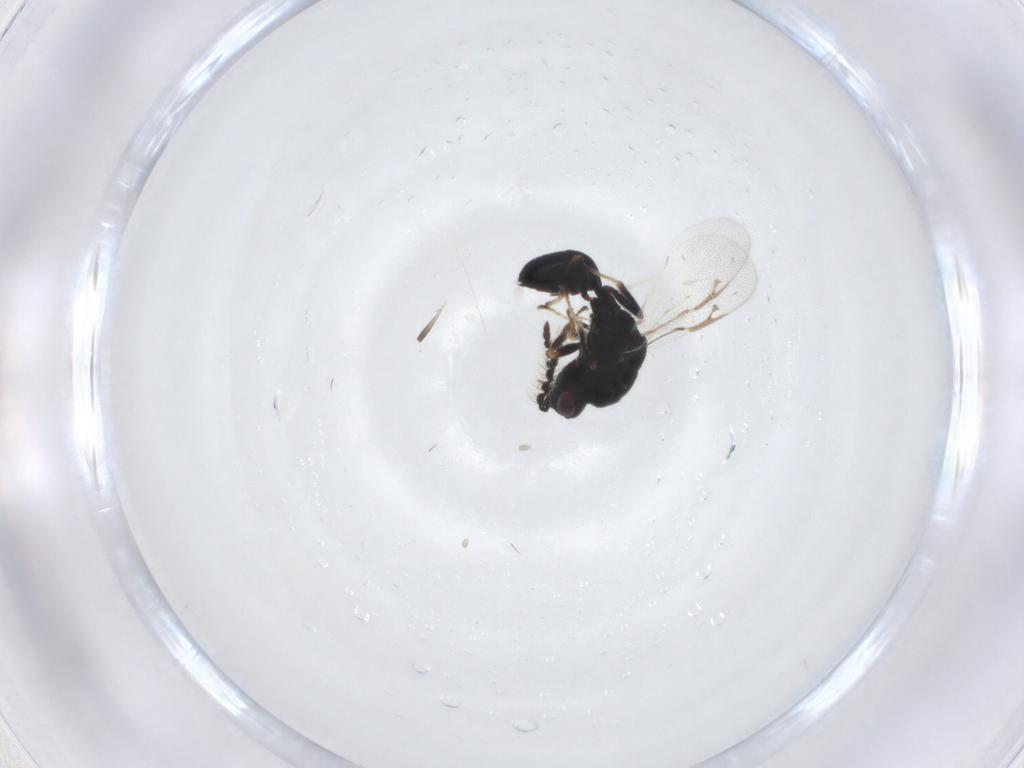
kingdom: Animalia
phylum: Arthropoda
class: Insecta
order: Hymenoptera
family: Eurytomidae
